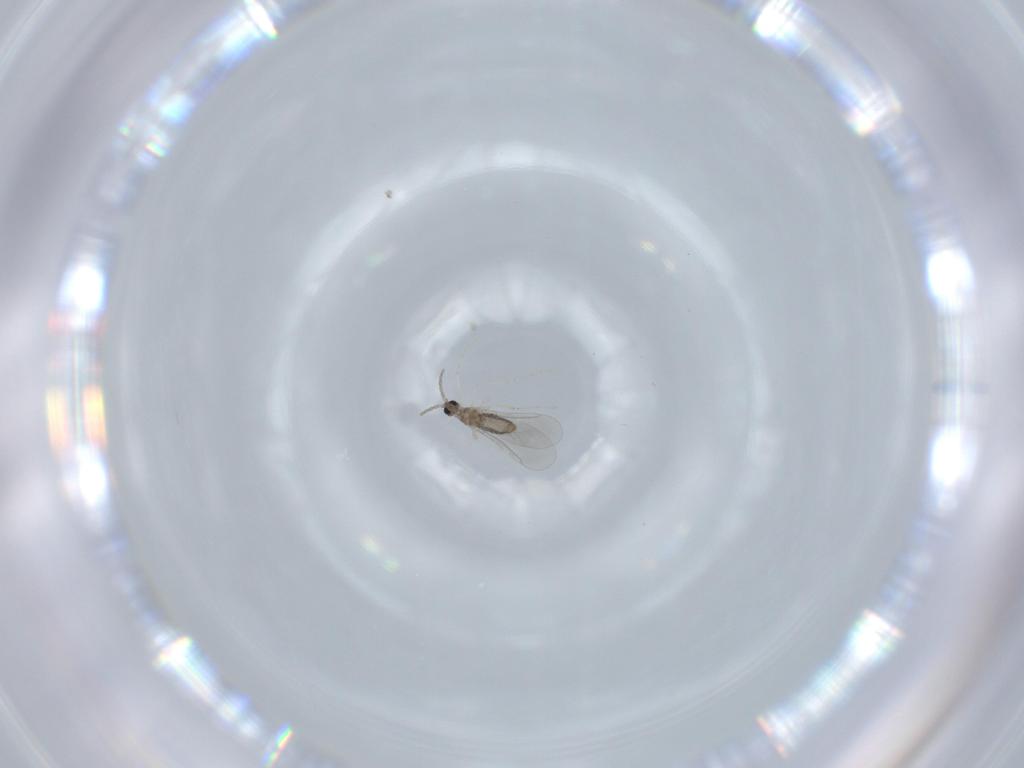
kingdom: Animalia
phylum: Arthropoda
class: Insecta
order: Diptera
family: Cecidomyiidae
